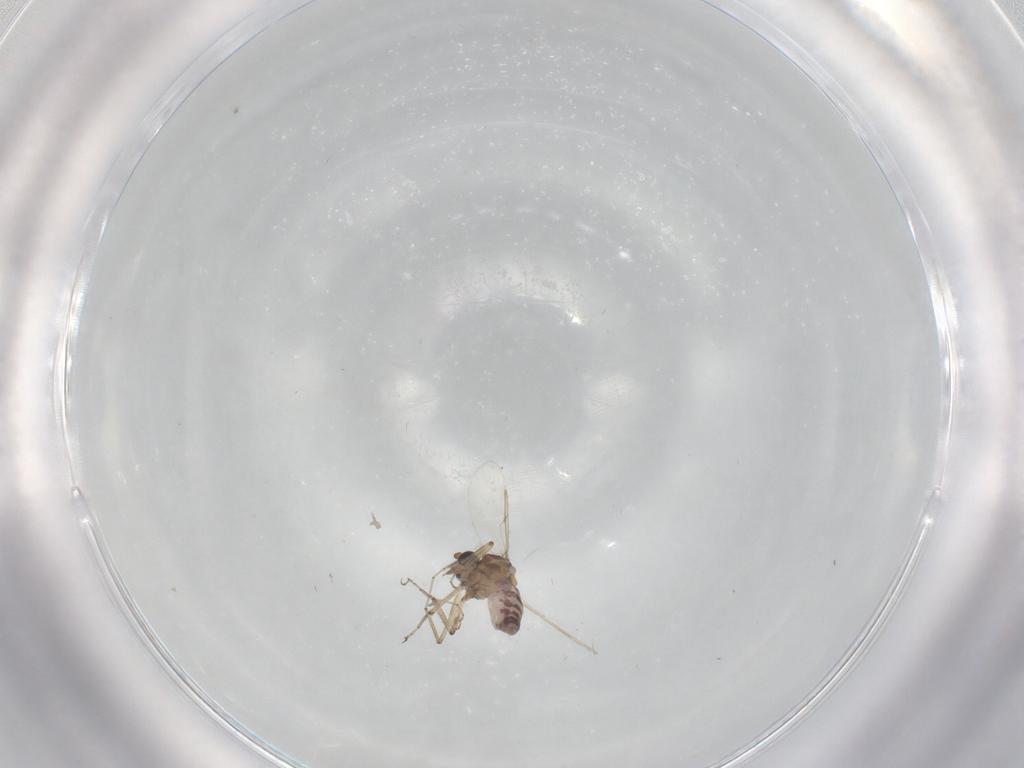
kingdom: Animalia
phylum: Arthropoda
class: Insecta
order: Diptera
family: Ceratopogonidae
